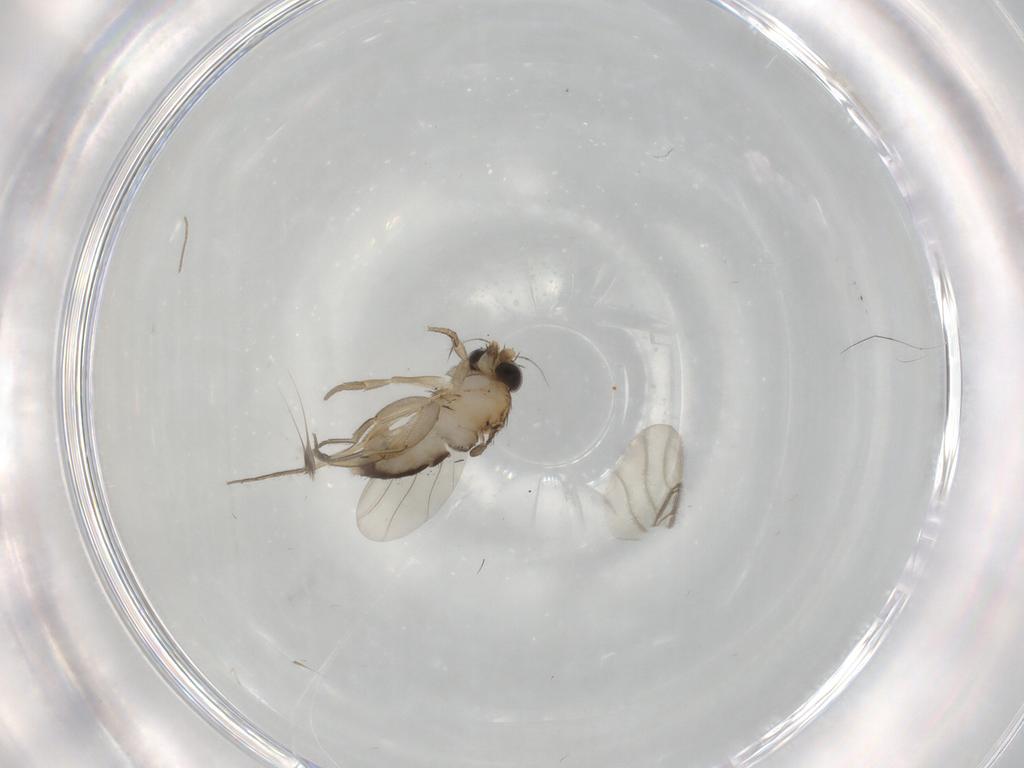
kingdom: Animalia
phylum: Arthropoda
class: Insecta
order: Diptera
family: Phoridae
